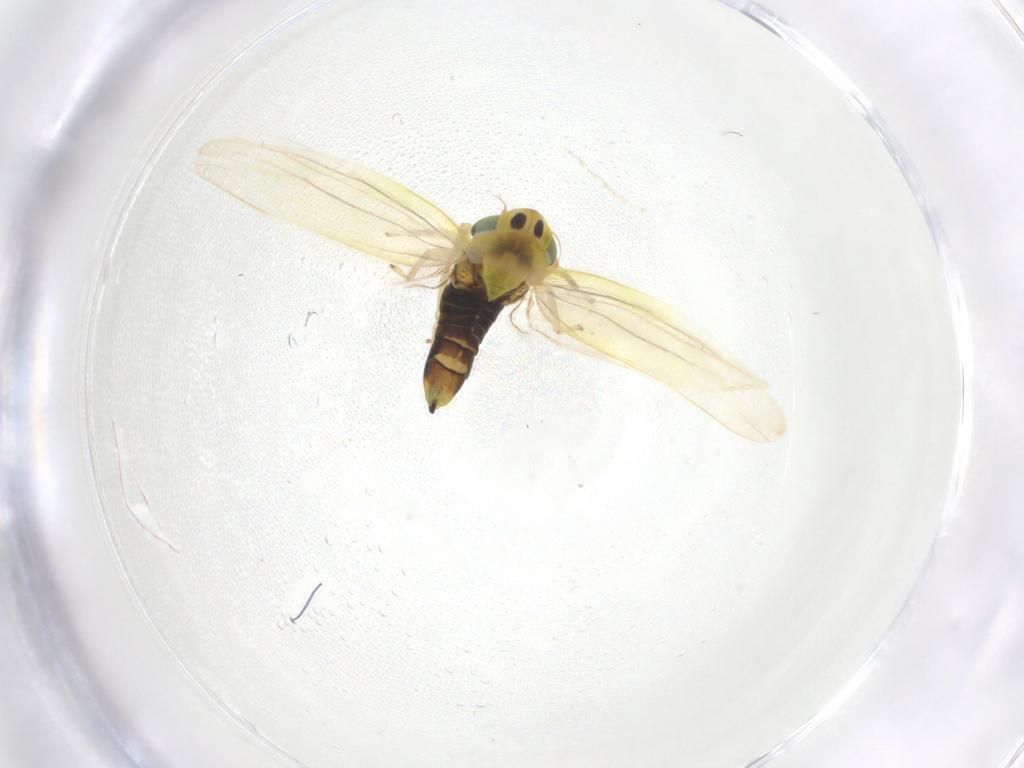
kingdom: Animalia
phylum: Arthropoda
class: Insecta
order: Hemiptera
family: Cicadellidae
